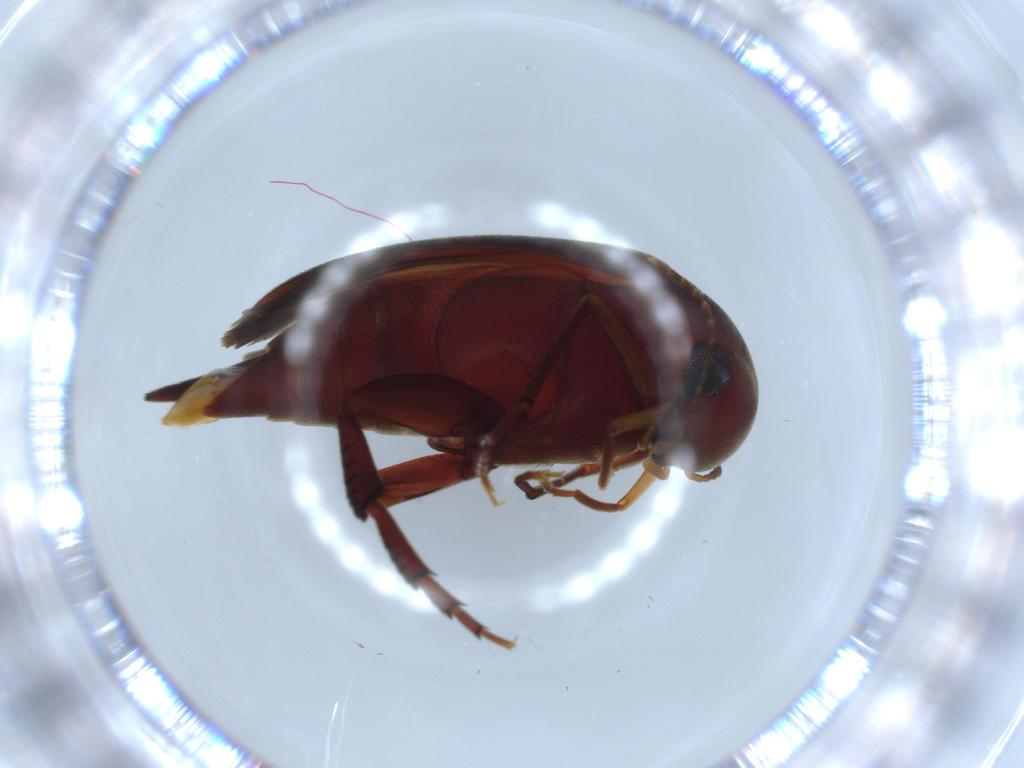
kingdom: Animalia
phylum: Arthropoda
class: Insecta
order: Coleoptera
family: Mordellidae
